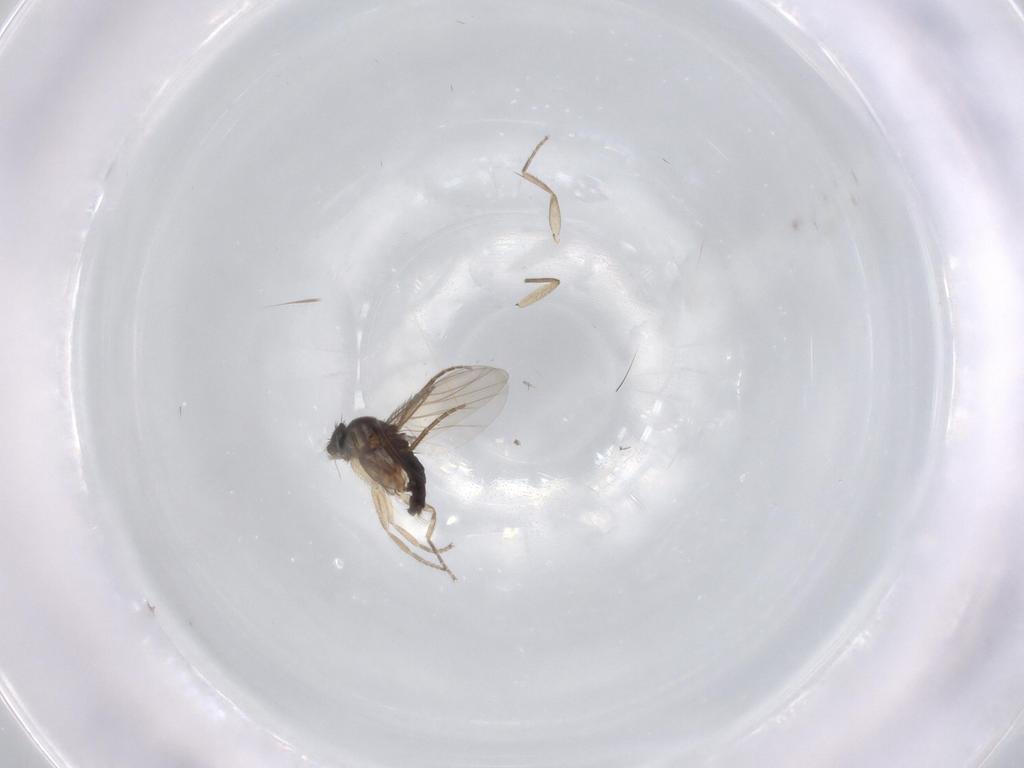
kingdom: Animalia
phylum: Arthropoda
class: Insecta
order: Diptera
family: Phoridae
